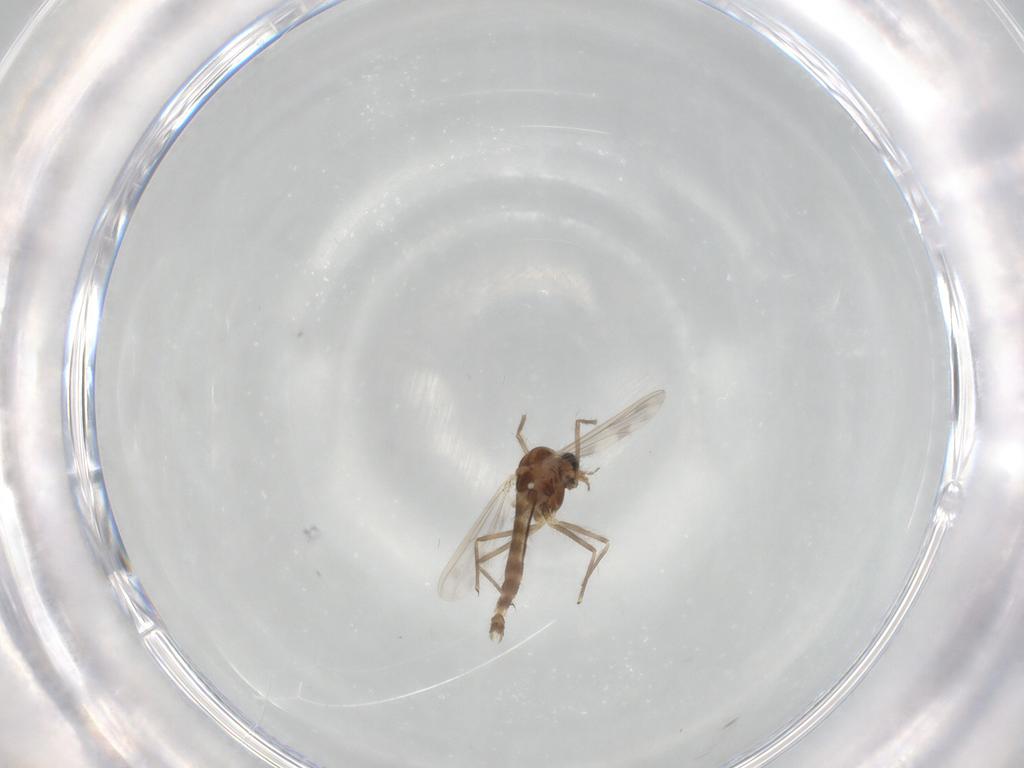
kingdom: Animalia
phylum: Arthropoda
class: Insecta
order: Diptera
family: Chironomidae
